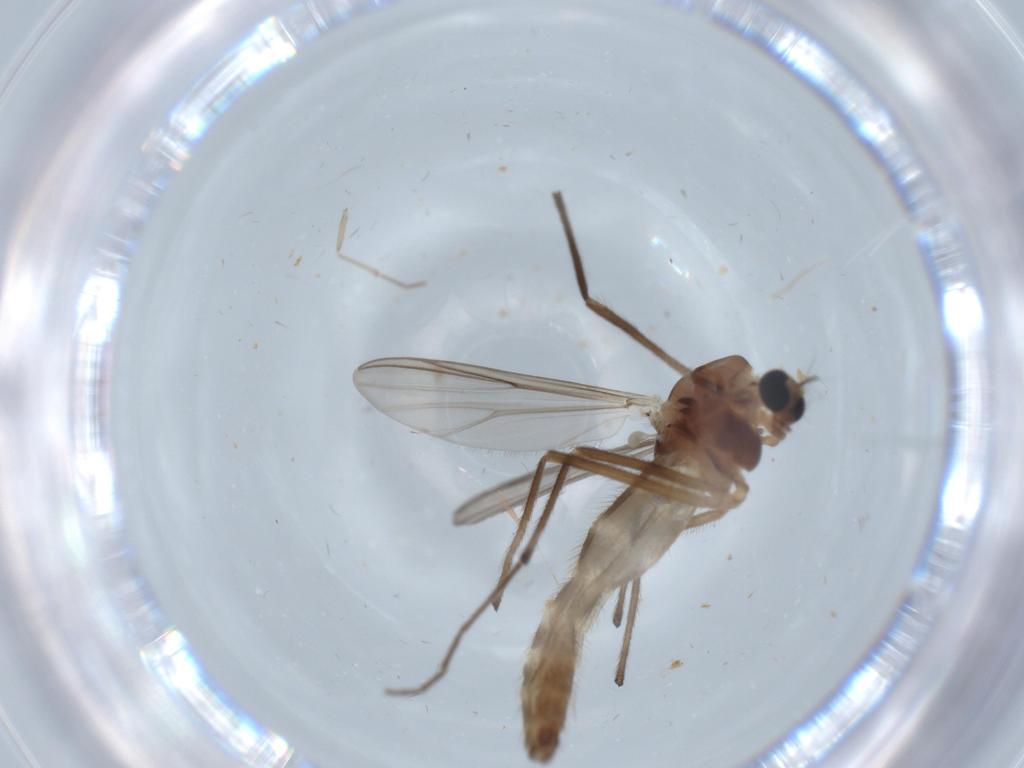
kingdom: Animalia
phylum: Arthropoda
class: Insecta
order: Diptera
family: Chironomidae
